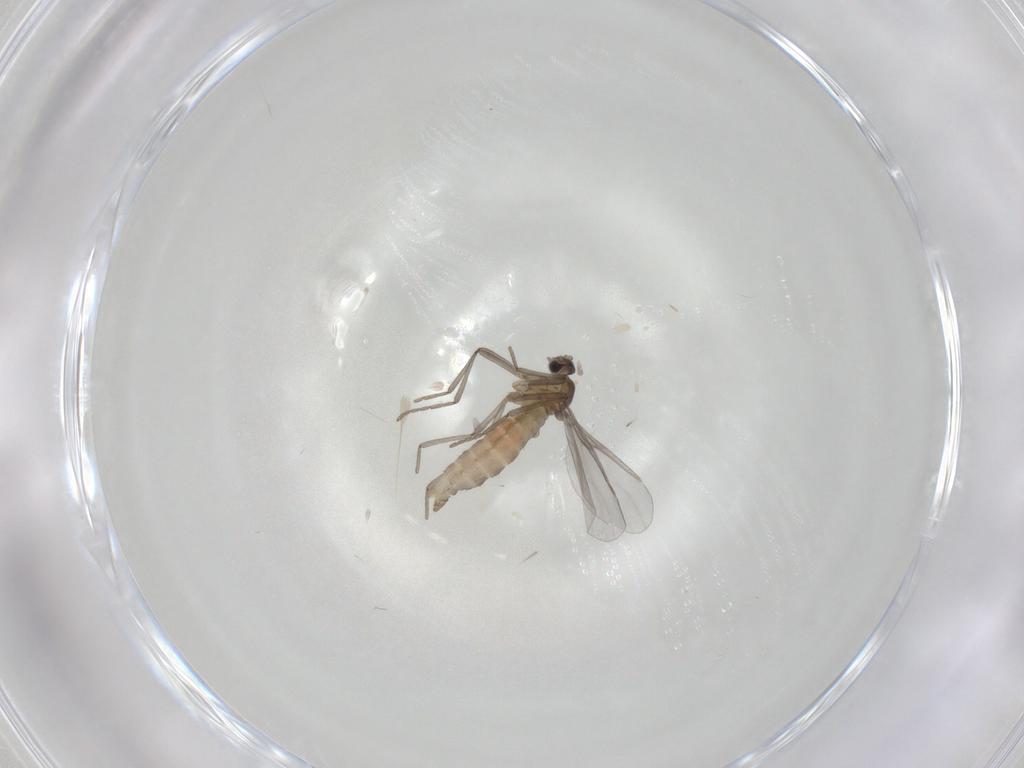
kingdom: Animalia
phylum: Arthropoda
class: Insecta
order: Diptera
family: Cecidomyiidae
